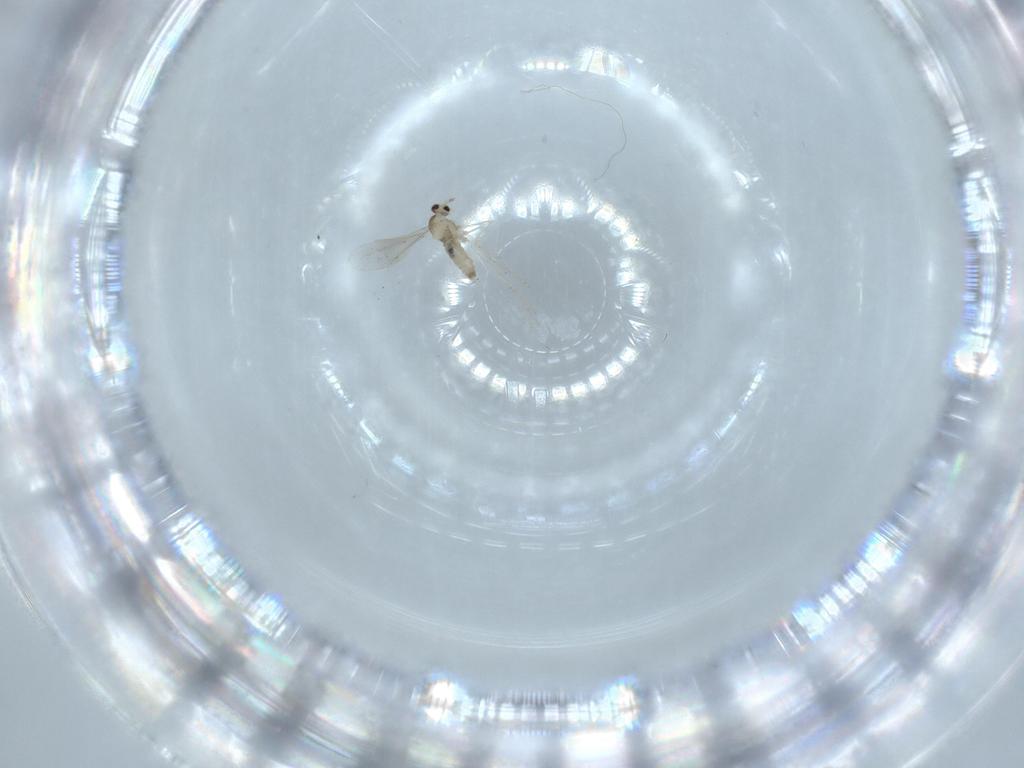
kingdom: Animalia
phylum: Arthropoda
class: Insecta
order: Diptera
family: Cecidomyiidae
